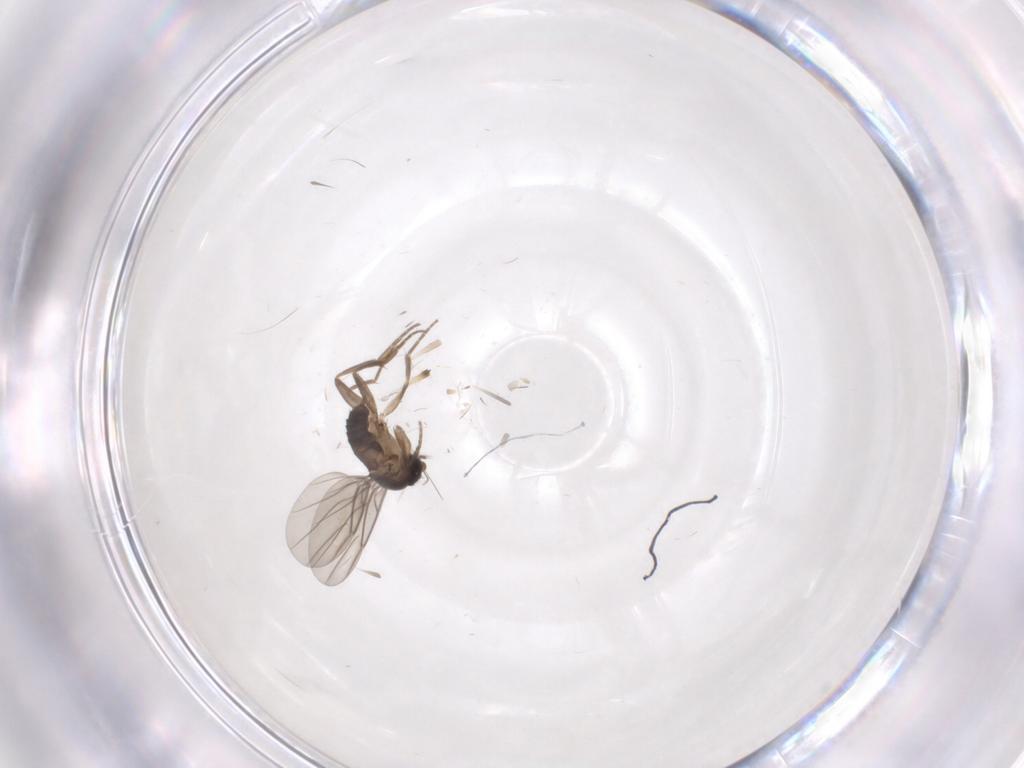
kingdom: Animalia
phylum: Arthropoda
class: Insecta
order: Diptera
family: Phoridae
